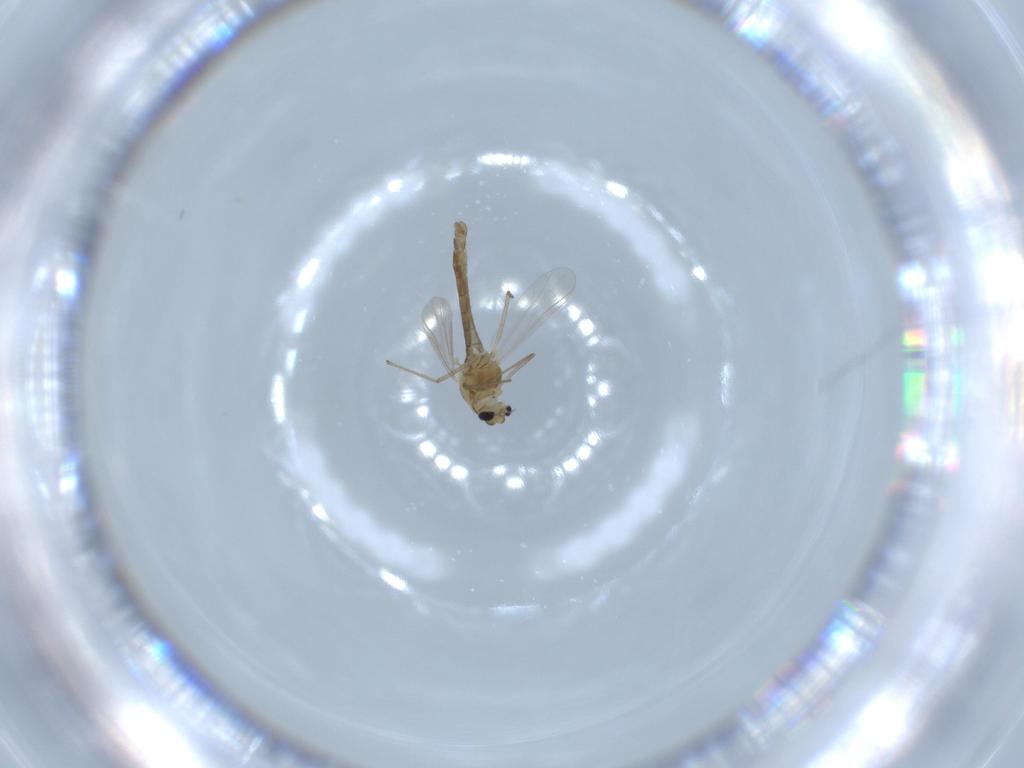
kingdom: Animalia
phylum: Arthropoda
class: Insecta
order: Diptera
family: Chironomidae
